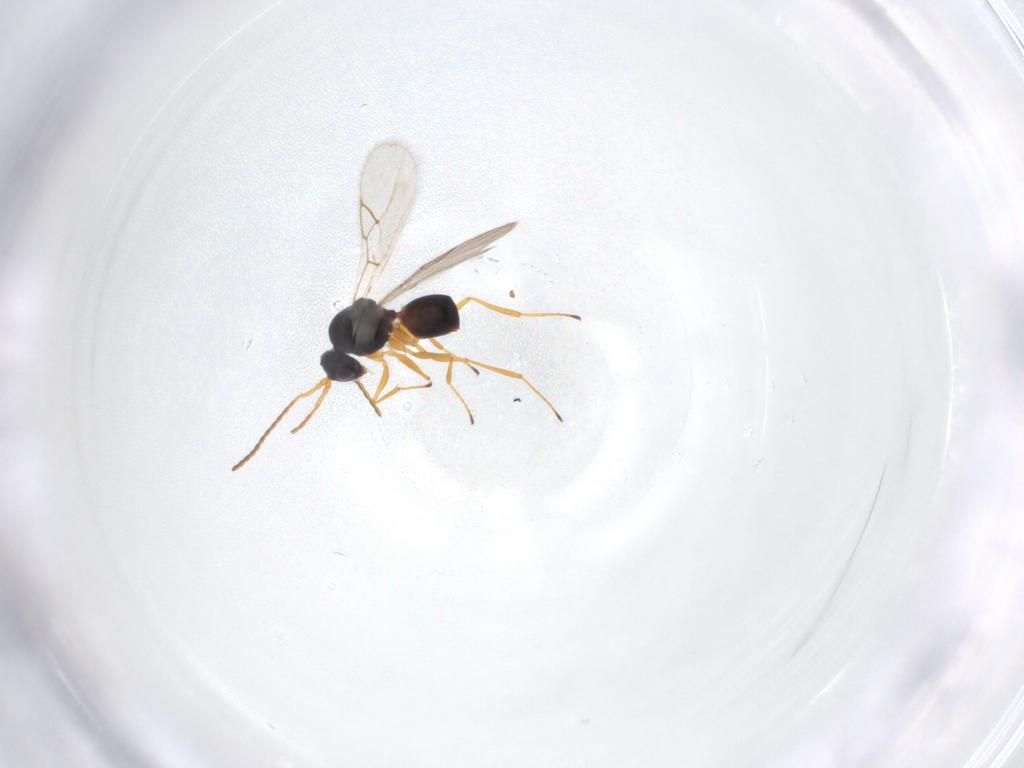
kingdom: Animalia
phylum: Arthropoda
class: Insecta
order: Hymenoptera
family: Figitidae
